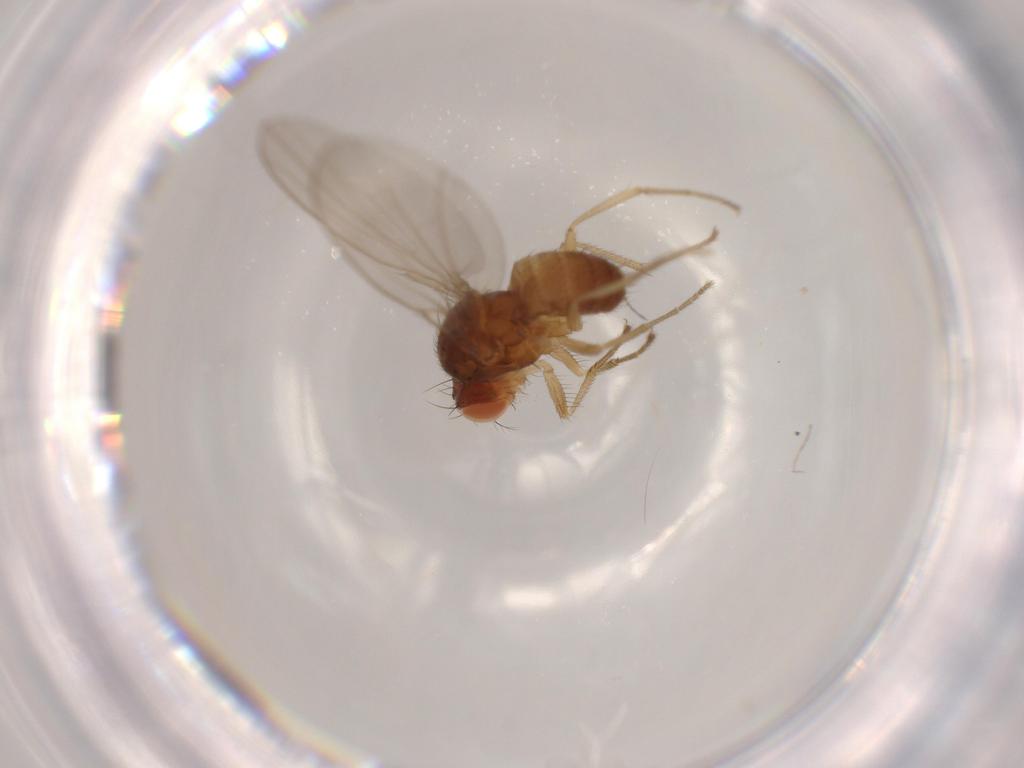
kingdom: Animalia
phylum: Arthropoda
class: Insecta
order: Diptera
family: Drosophilidae
